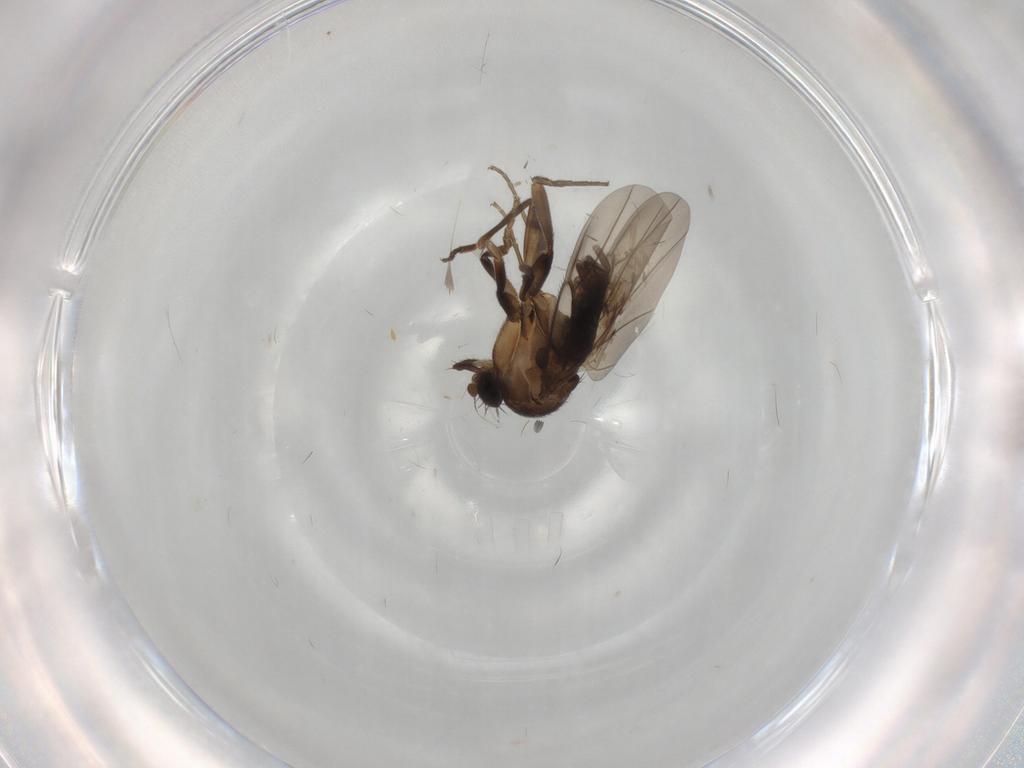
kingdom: Animalia
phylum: Arthropoda
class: Insecta
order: Diptera
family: Phoridae
